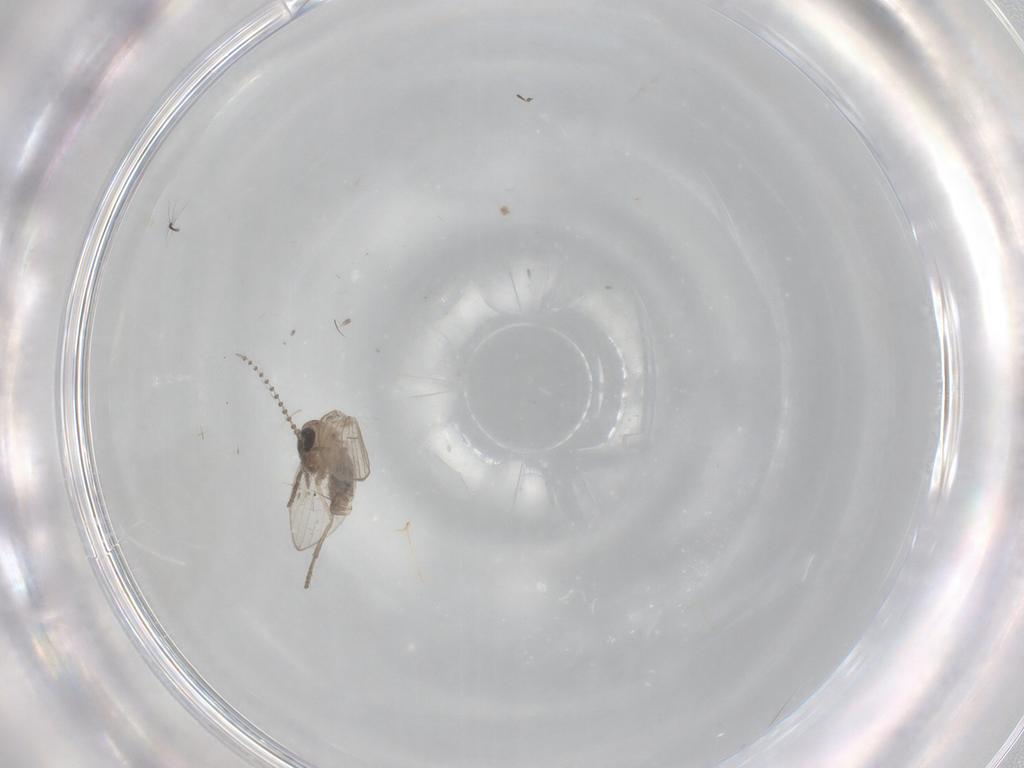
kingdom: Animalia
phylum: Arthropoda
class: Insecta
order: Diptera
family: Psychodidae
